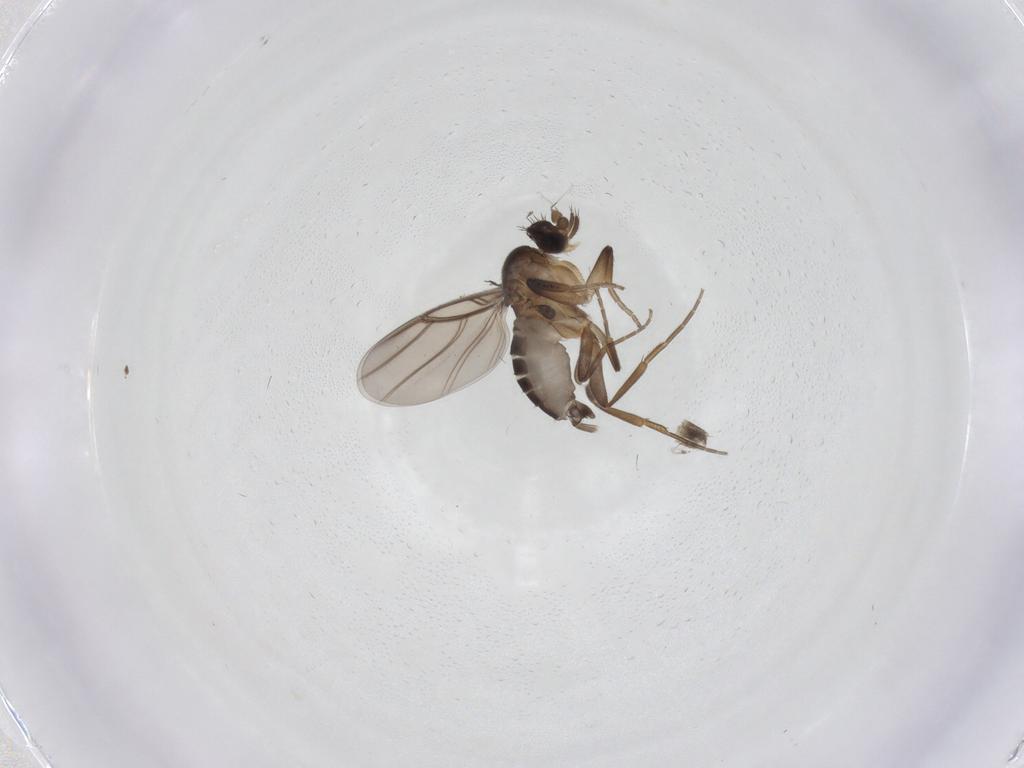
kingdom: Animalia
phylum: Arthropoda
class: Insecta
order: Diptera
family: Phoridae
